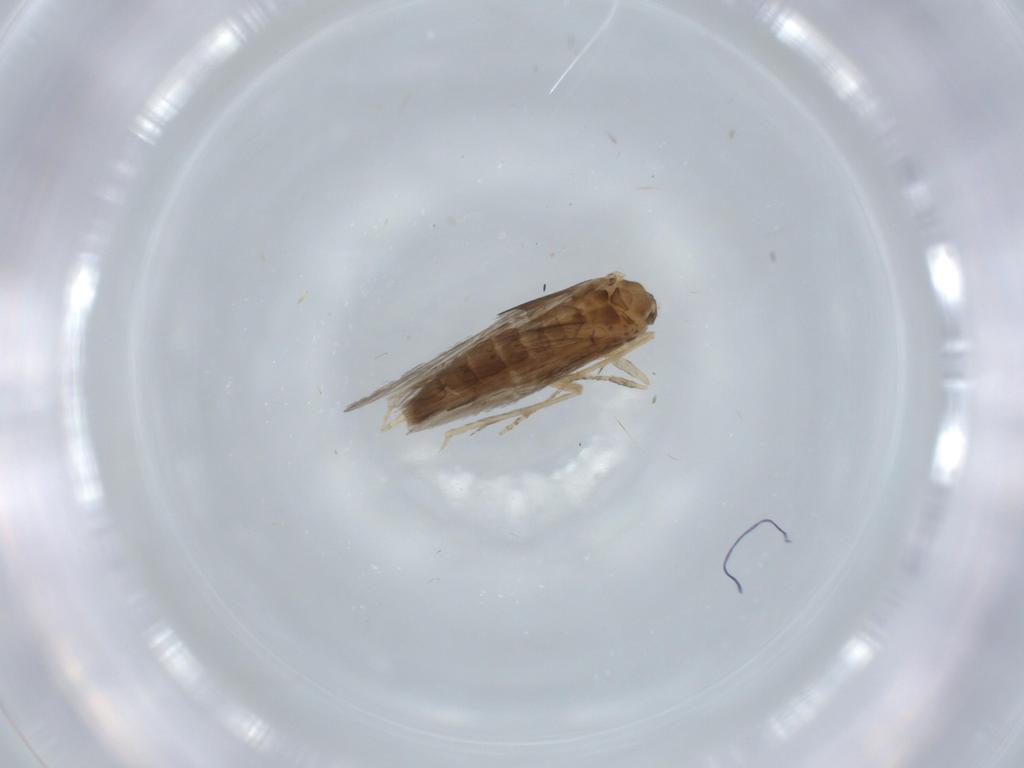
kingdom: Animalia
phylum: Arthropoda
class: Insecta
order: Trichoptera
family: Hydroptilidae
